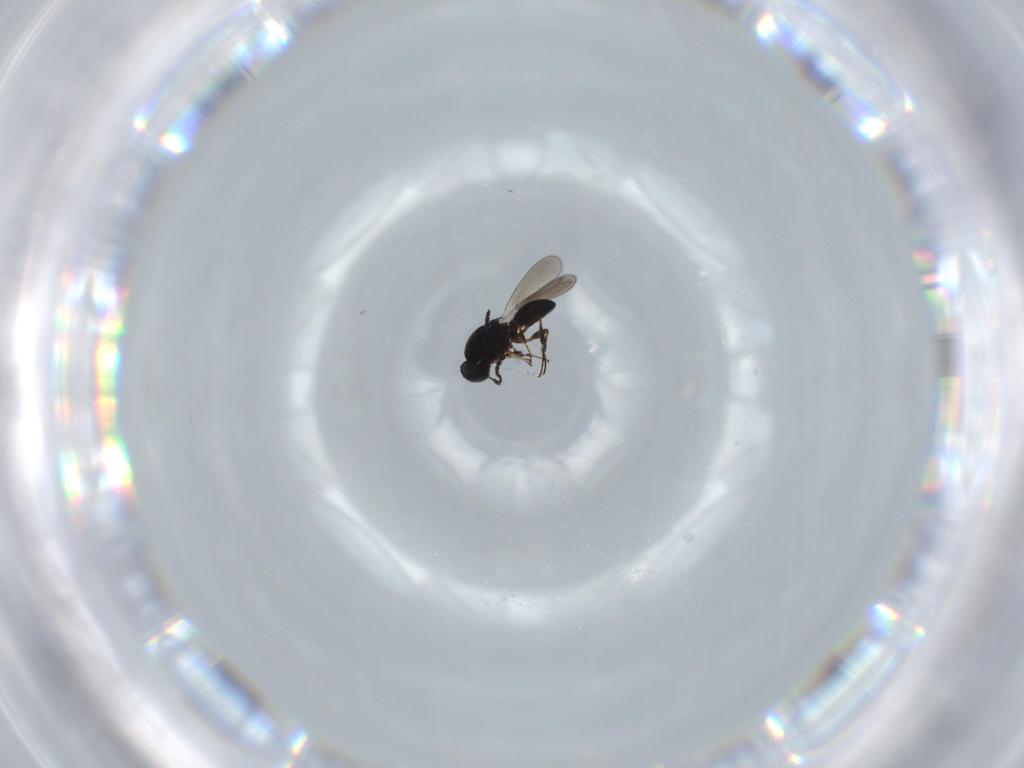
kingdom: Animalia
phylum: Arthropoda
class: Insecta
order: Hymenoptera
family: Platygastridae
